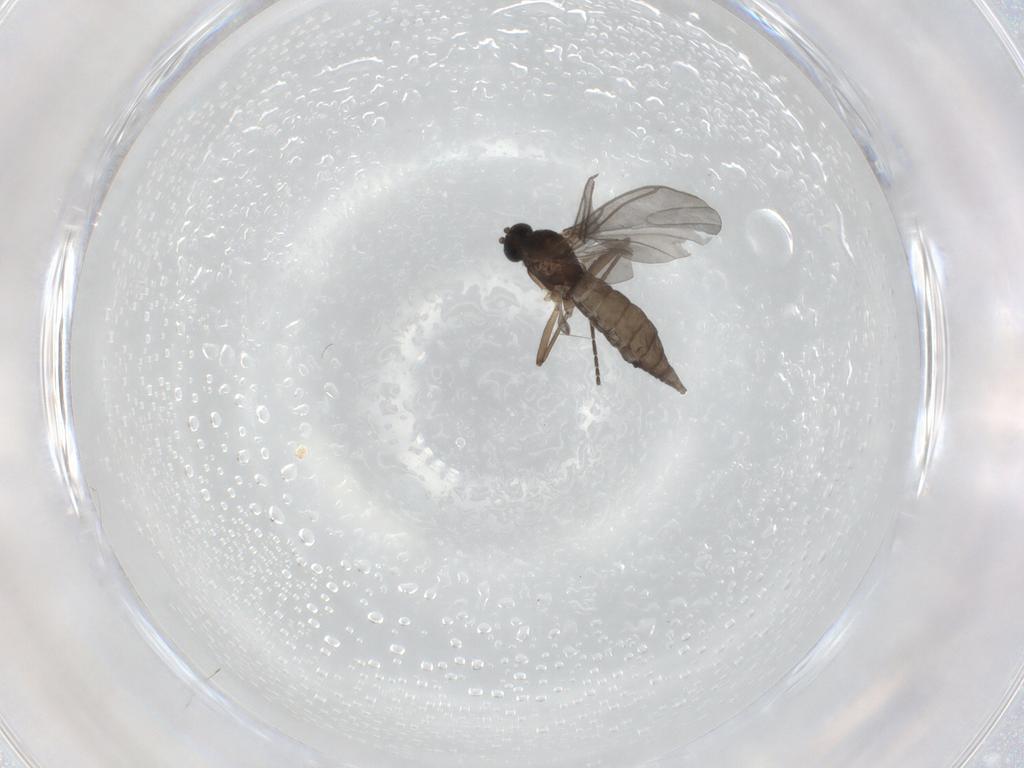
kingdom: Animalia
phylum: Arthropoda
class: Insecta
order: Diptera
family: Sciaridae
